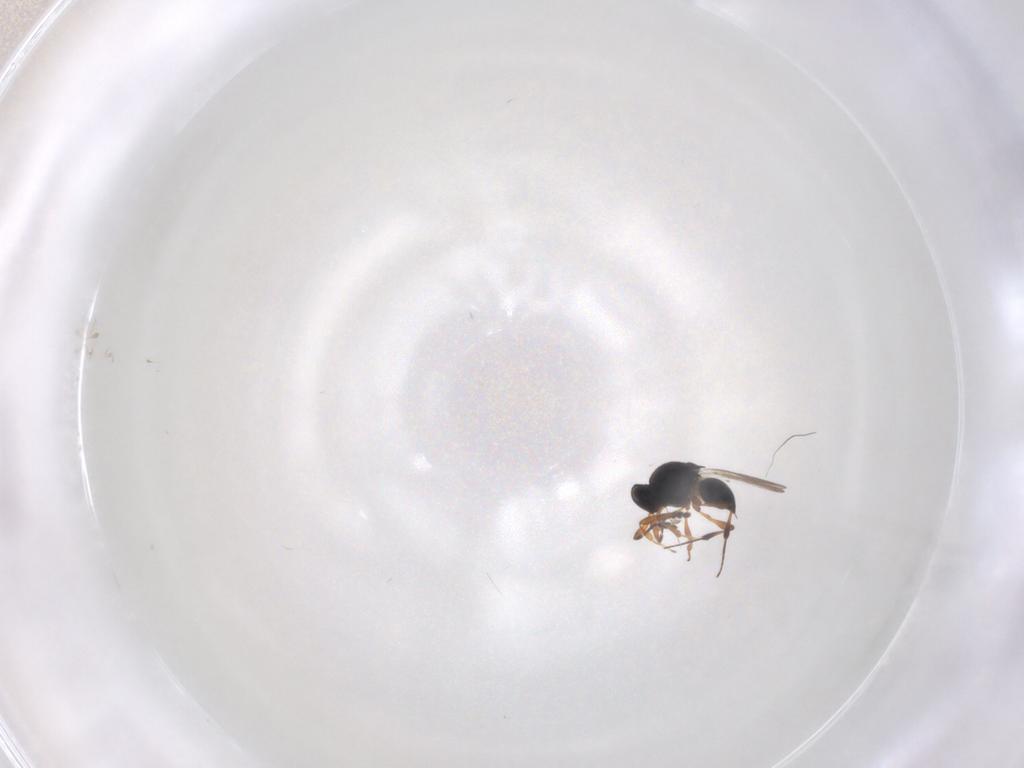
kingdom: Animalia
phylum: Arthropoda
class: Insecta
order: Hymenoptera
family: Platygastridae
